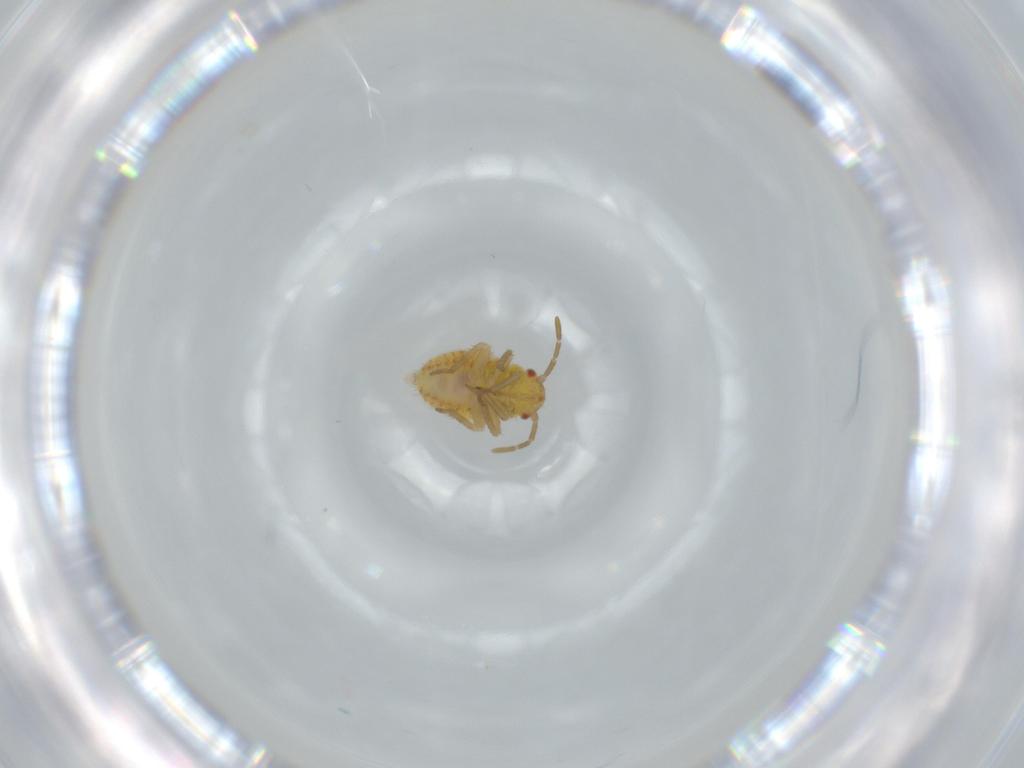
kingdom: Animalia
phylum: Arthropoda
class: Insecta
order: Hemiptera
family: Miridae
